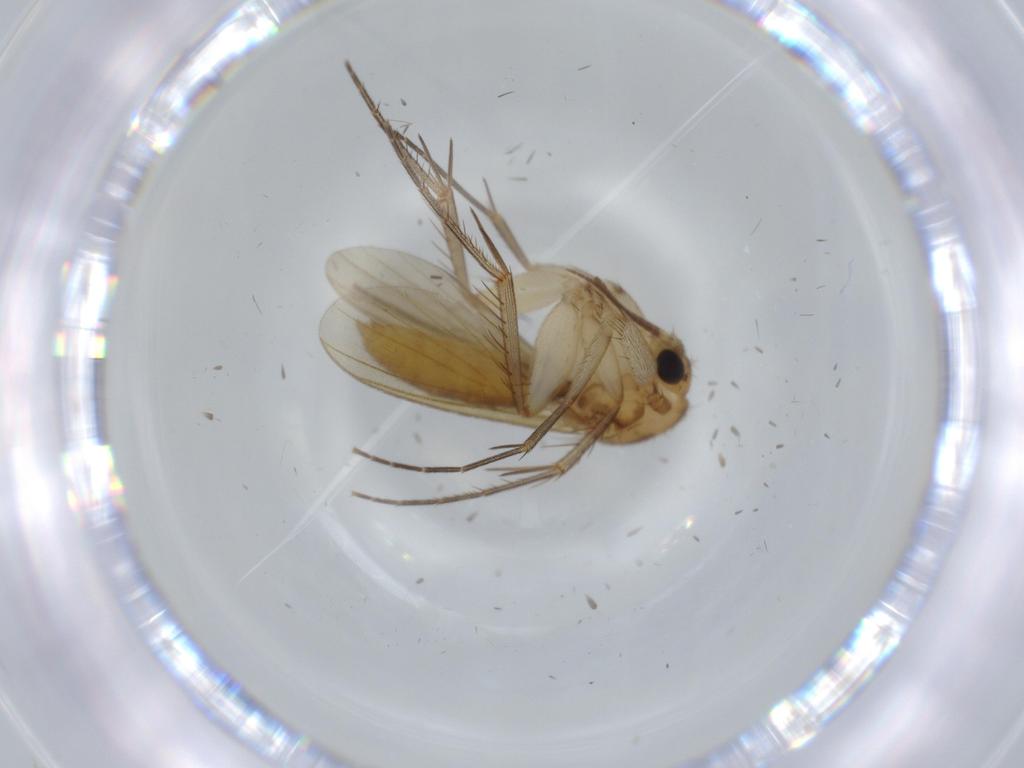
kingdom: Animalia
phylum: Arthropoda
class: Insecta
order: Diptera
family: Mycetophilidae
